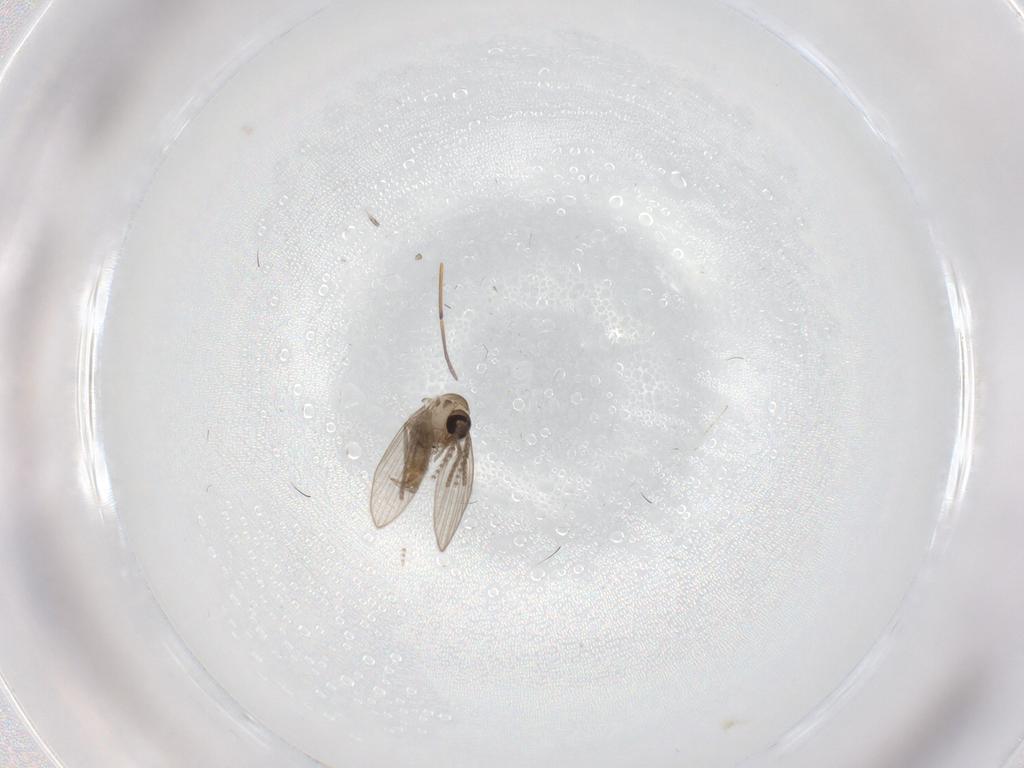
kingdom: Animalia
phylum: Arthropoda
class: Insecta
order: Diptera
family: Psychodidae
